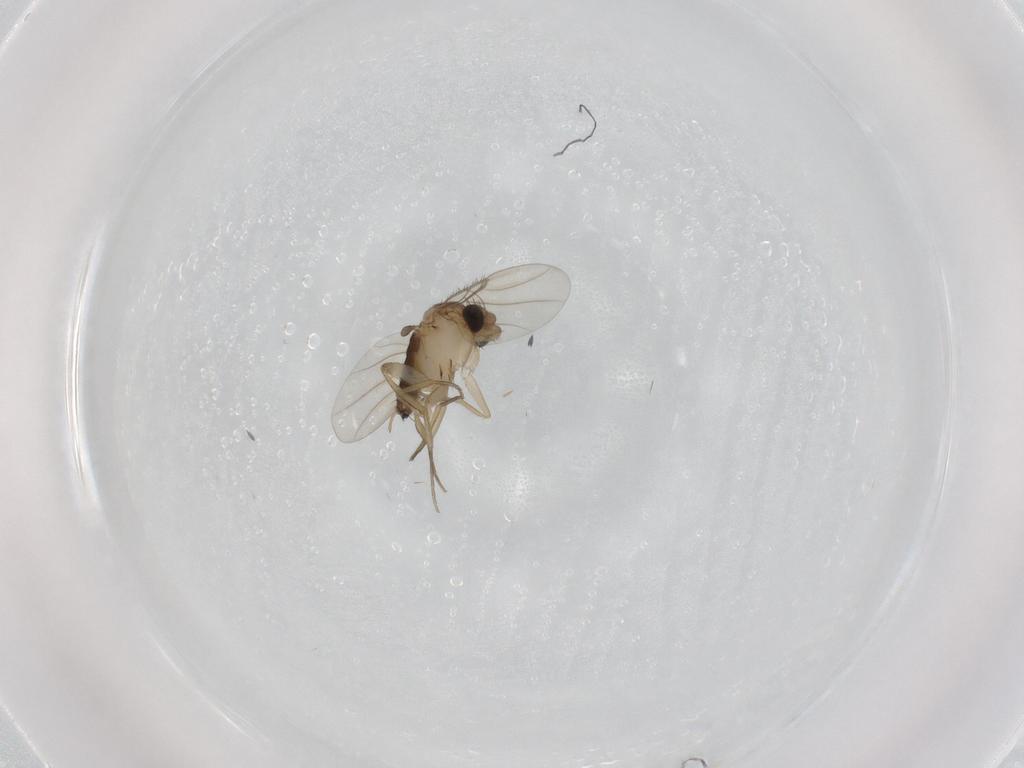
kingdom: Animalia
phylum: Arthropoda
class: Insecta
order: Diptera
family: Phoridae
